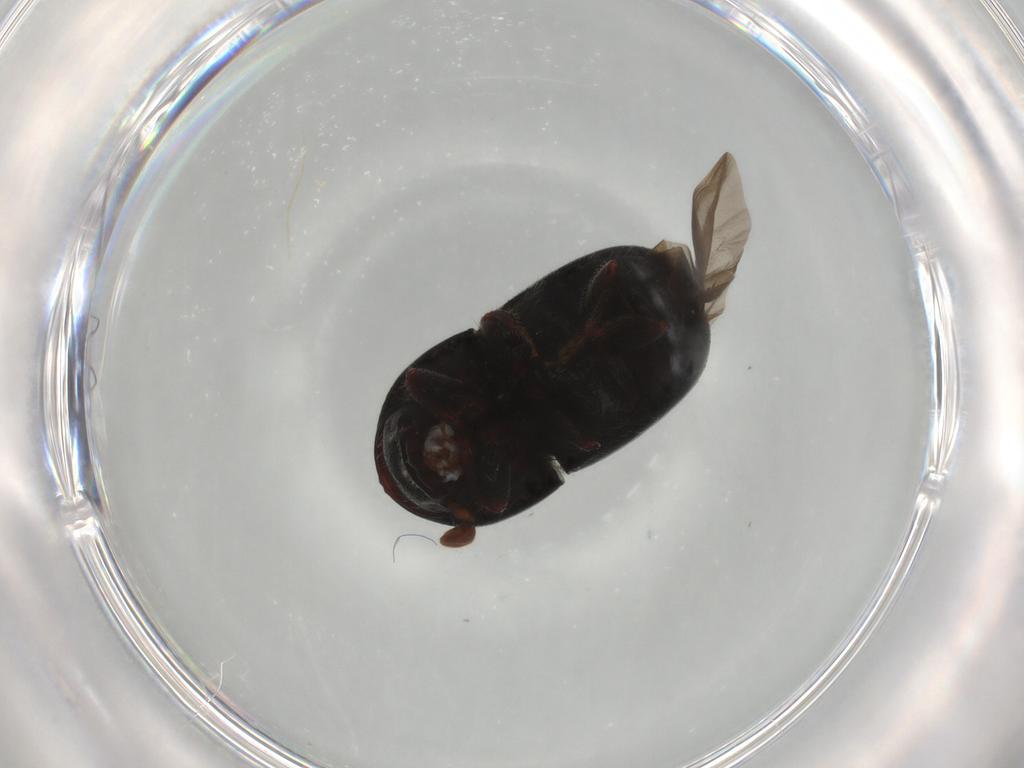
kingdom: Animalia
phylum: Arthropoda
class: Insecta
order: Coleoptera
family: Curculionidae
